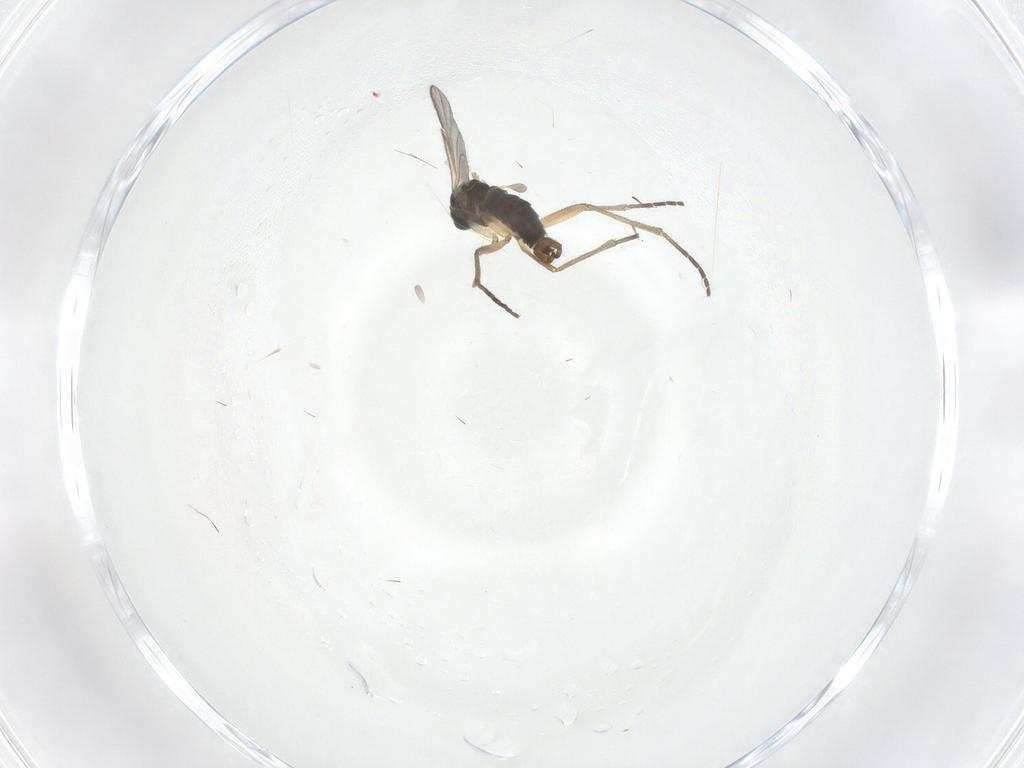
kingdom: Animalia
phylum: Arthropoda
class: Insecta
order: Diptera
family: Sciaridae
